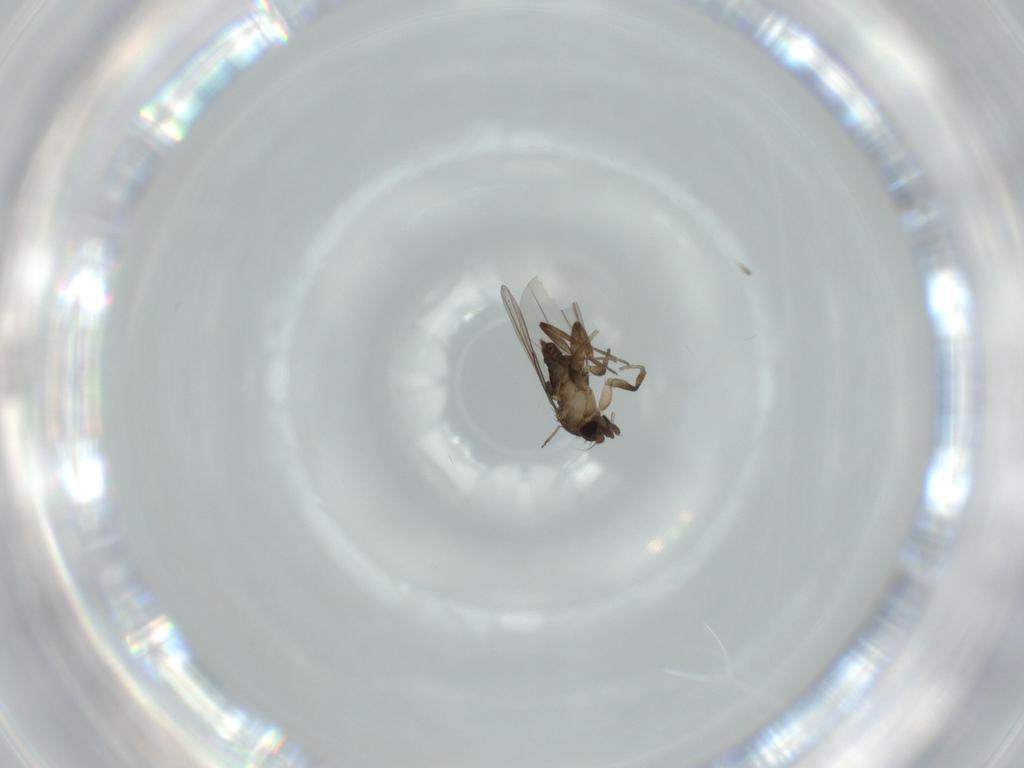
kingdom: Animalia
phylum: Arthropoda
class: Insecta
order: Diptera
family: Phoridae
